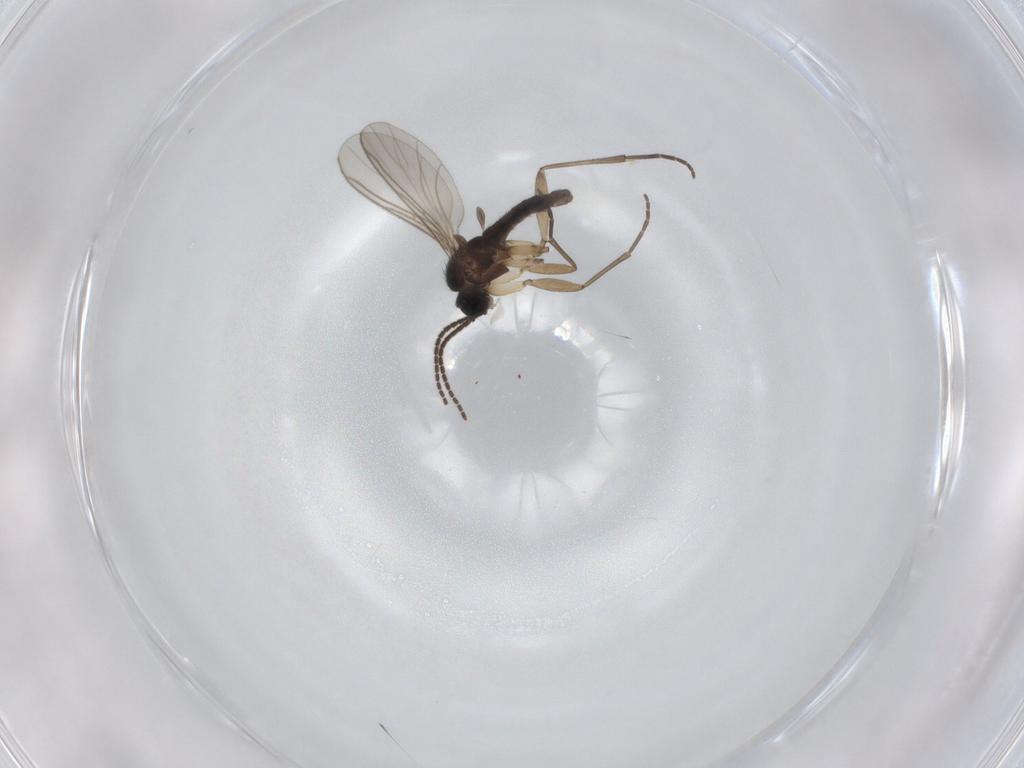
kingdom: Animalia
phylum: Arthropoda
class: Insecta
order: Diptera
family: Sciaridae
